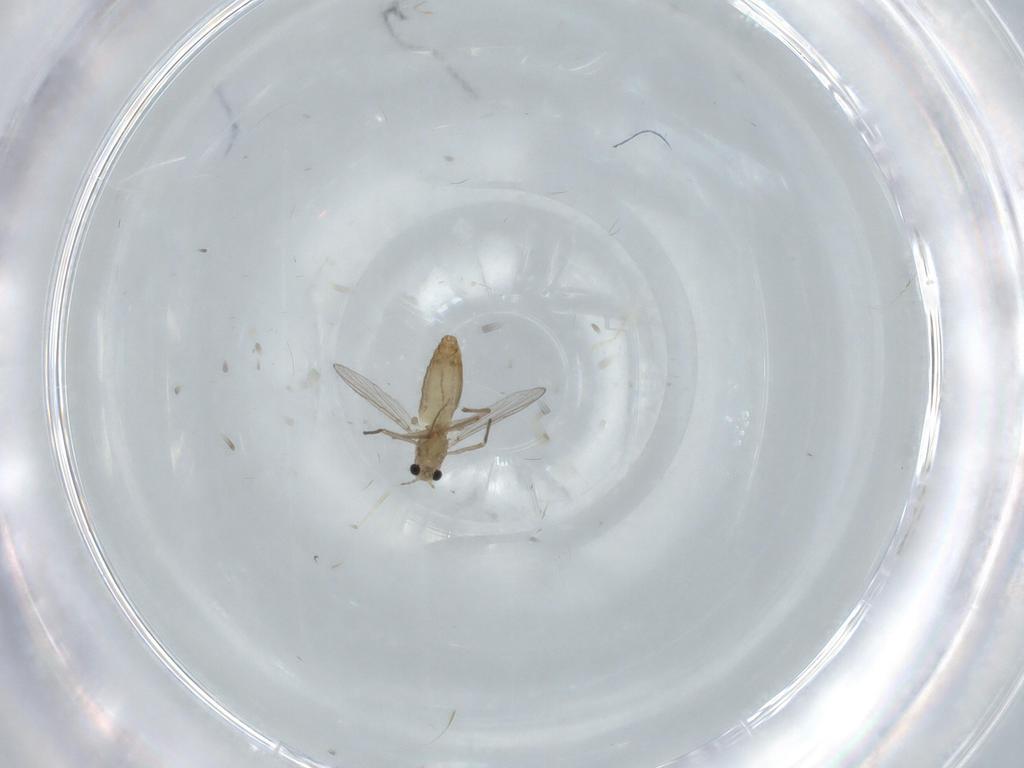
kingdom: Animalia
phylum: Arthropoda
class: Insecta
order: Diptera
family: Chironomidae
